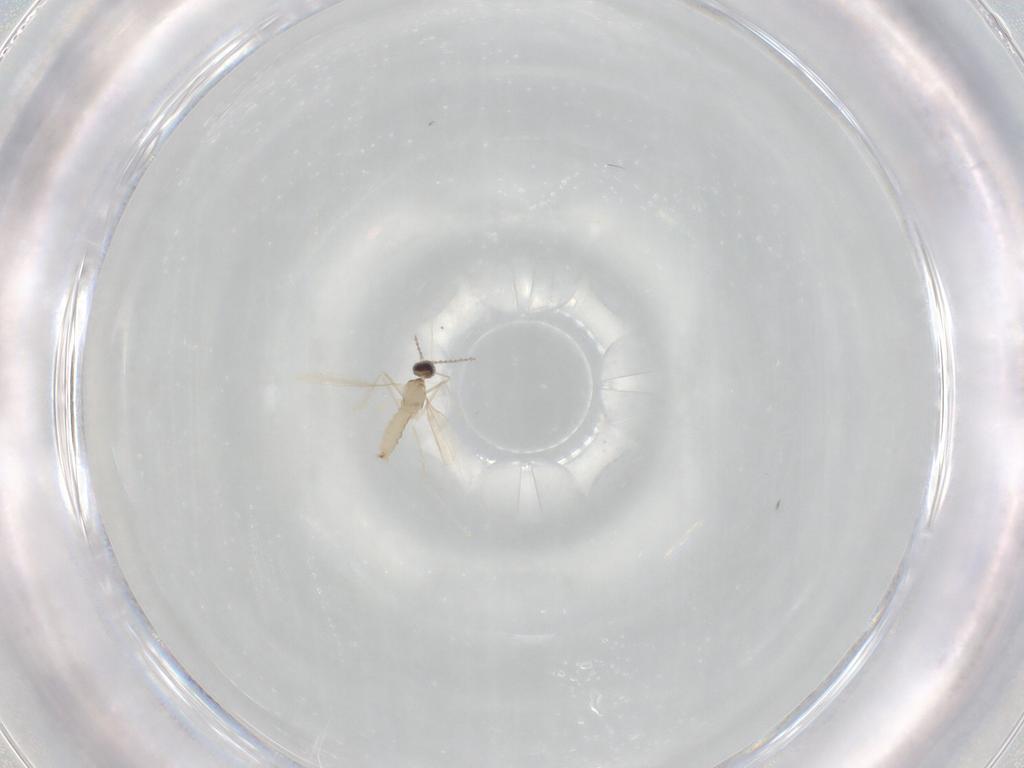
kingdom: Animalia
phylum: Arthropoda
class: Insecta
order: Diptera
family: Cecidomyiidae
